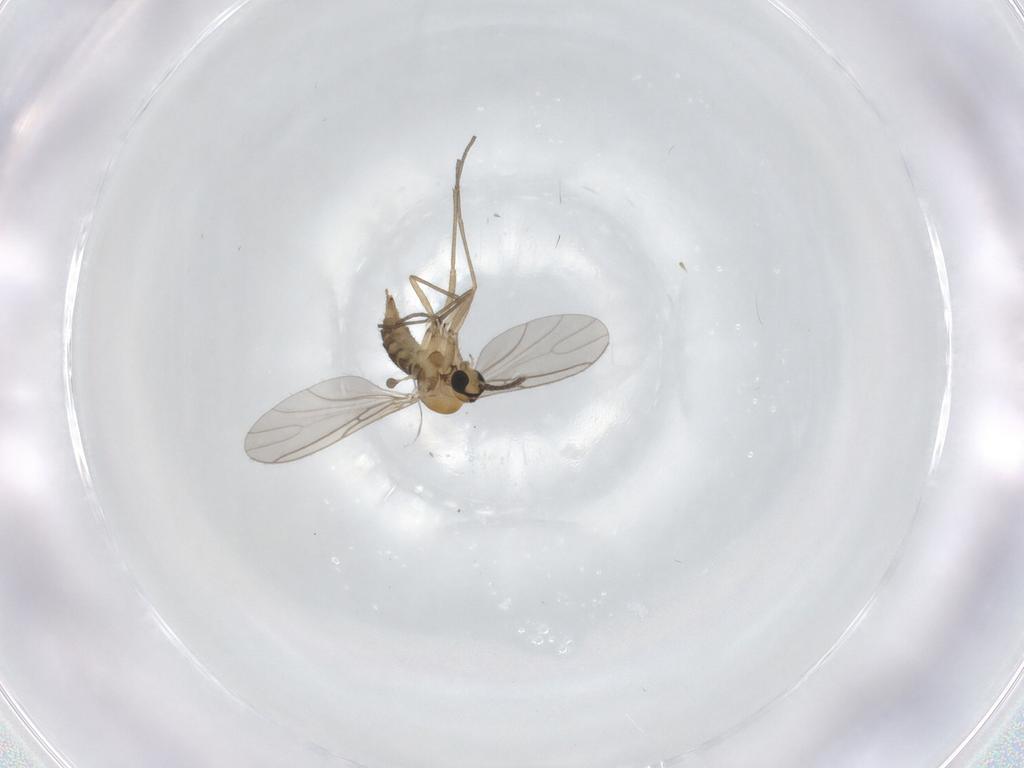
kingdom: Animalia
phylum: Arthropoda
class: Insecta
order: Diptera
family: Sciaridae
